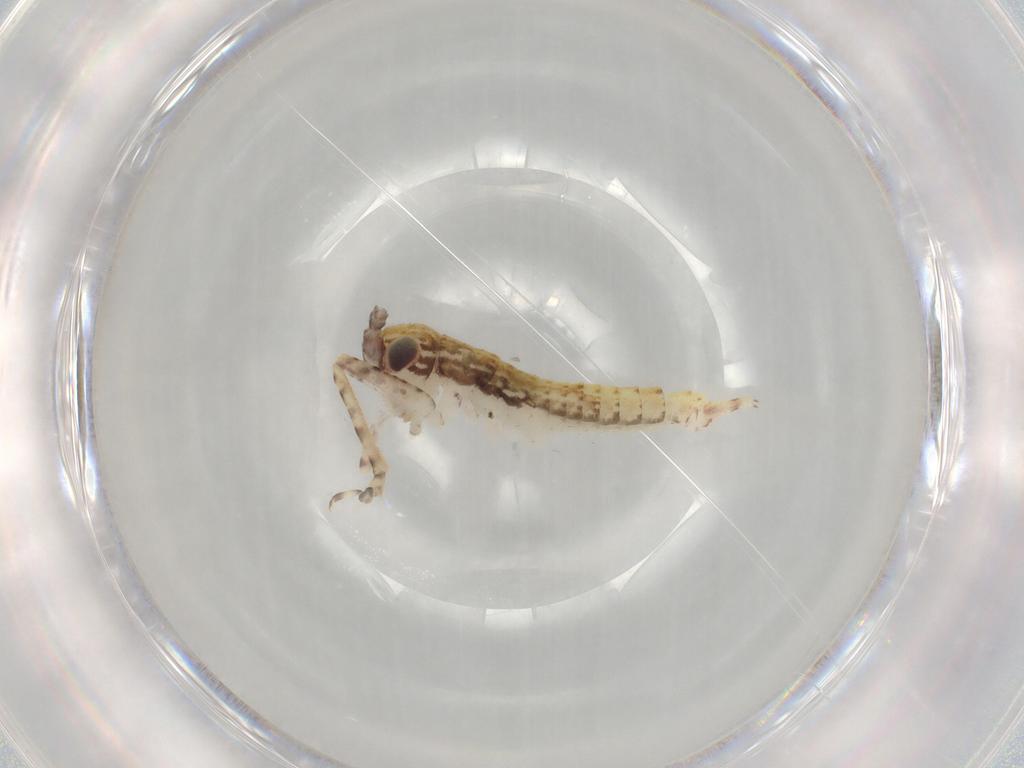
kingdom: Animalia
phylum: Arthropoda
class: Insecta
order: Orthoptera
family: Gryllidae
